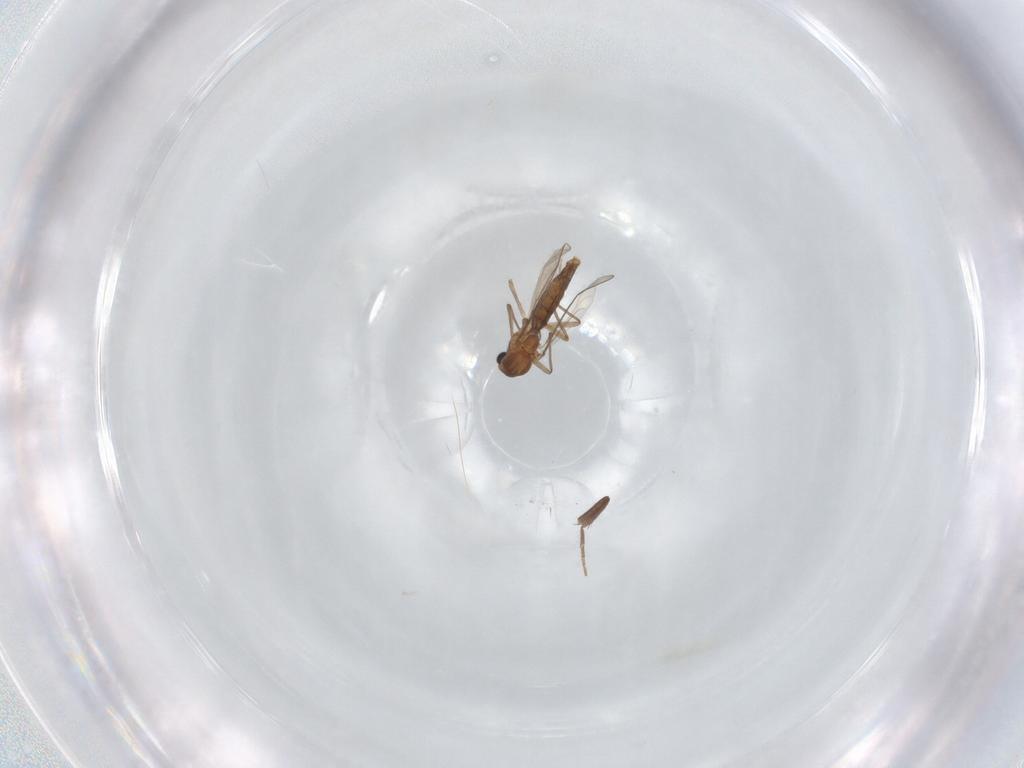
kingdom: Animalia
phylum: Arthropoda
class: Insecta
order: Diptera
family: Chironomidae
